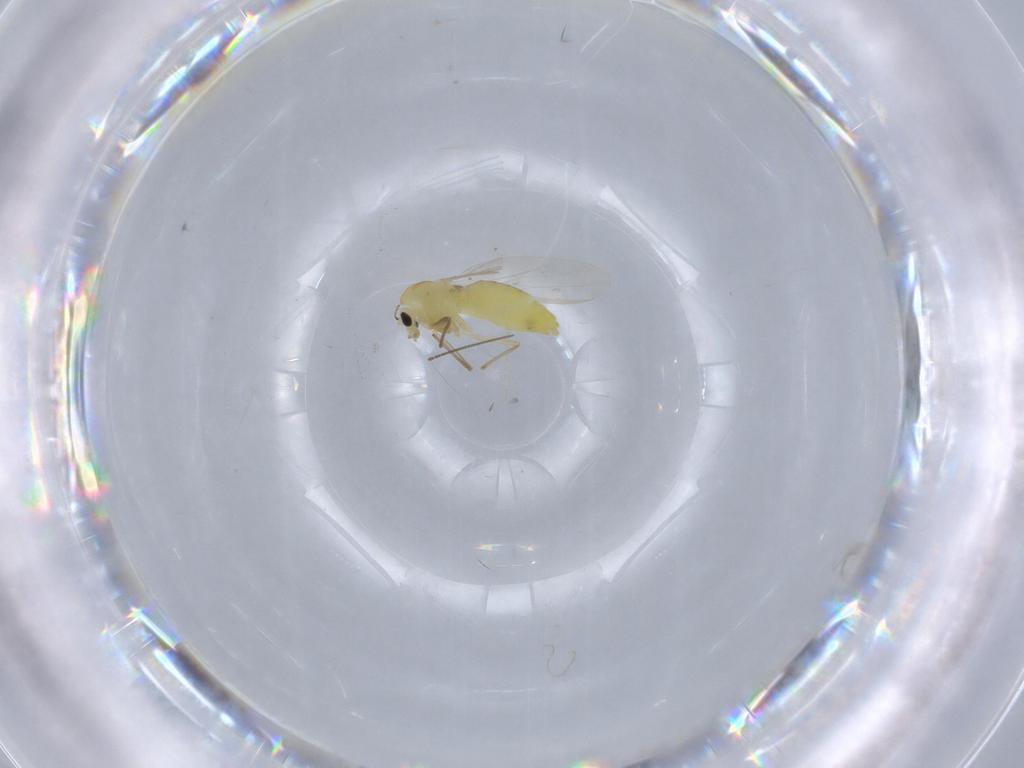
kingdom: Animalia
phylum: Arthropoda
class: Insecta
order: Diptera
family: Chironomidae
